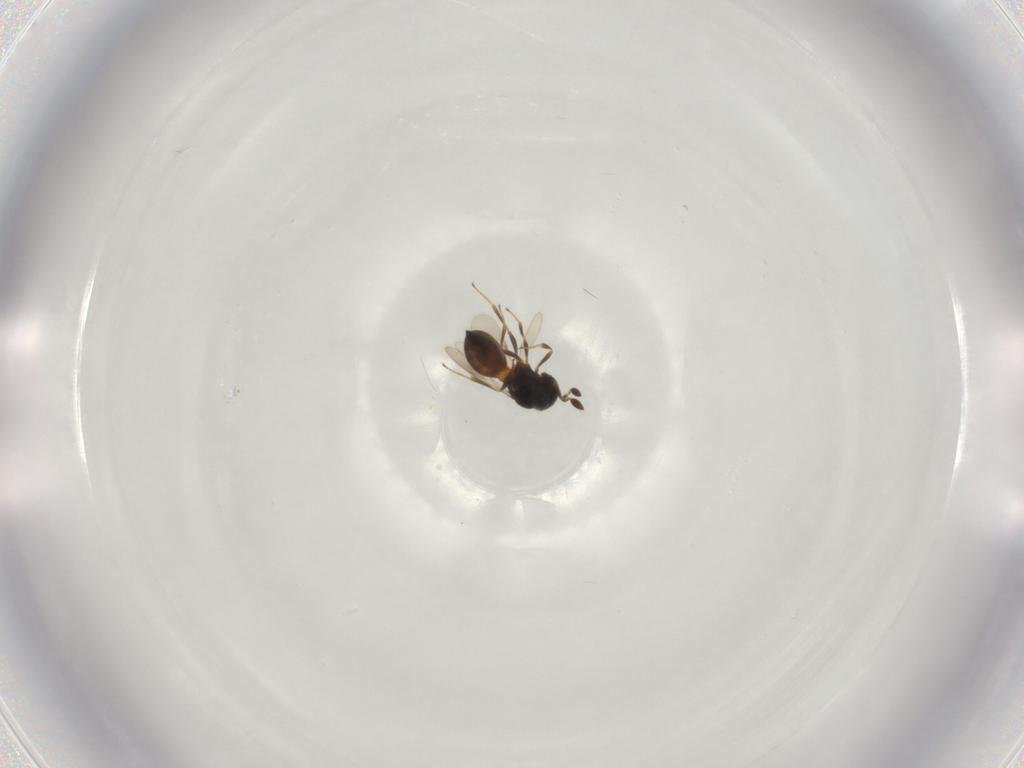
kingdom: Animalia
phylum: Arthropoda
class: Insecta
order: Hymenoptera
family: Scelionidae
